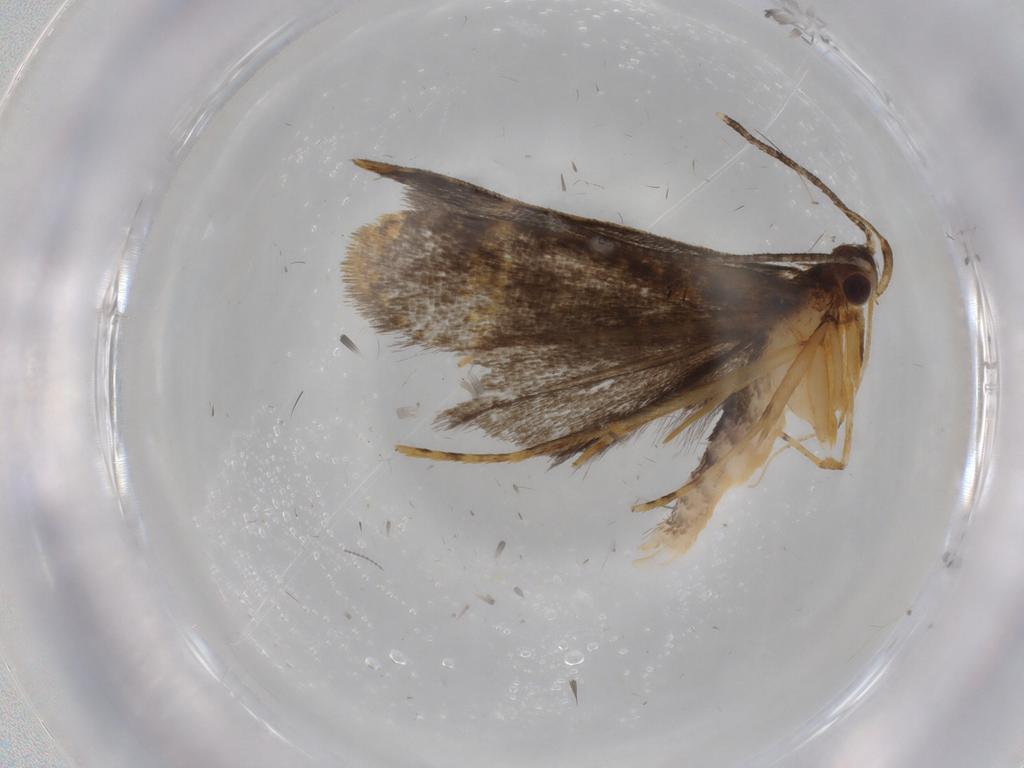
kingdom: Animalia
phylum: Arthropoda
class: Insecta
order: Lepidoptera
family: Cosmopterigidae
